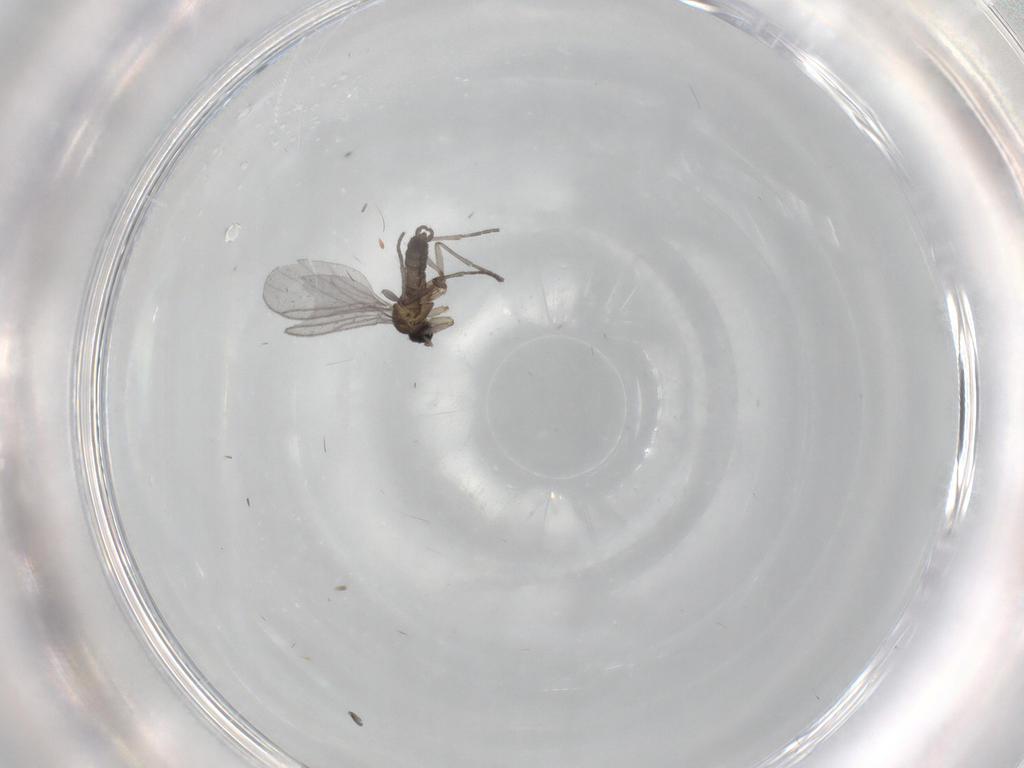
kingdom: Animalia
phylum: Arthropoda
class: Insecta
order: Diptera
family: Sciaridae
